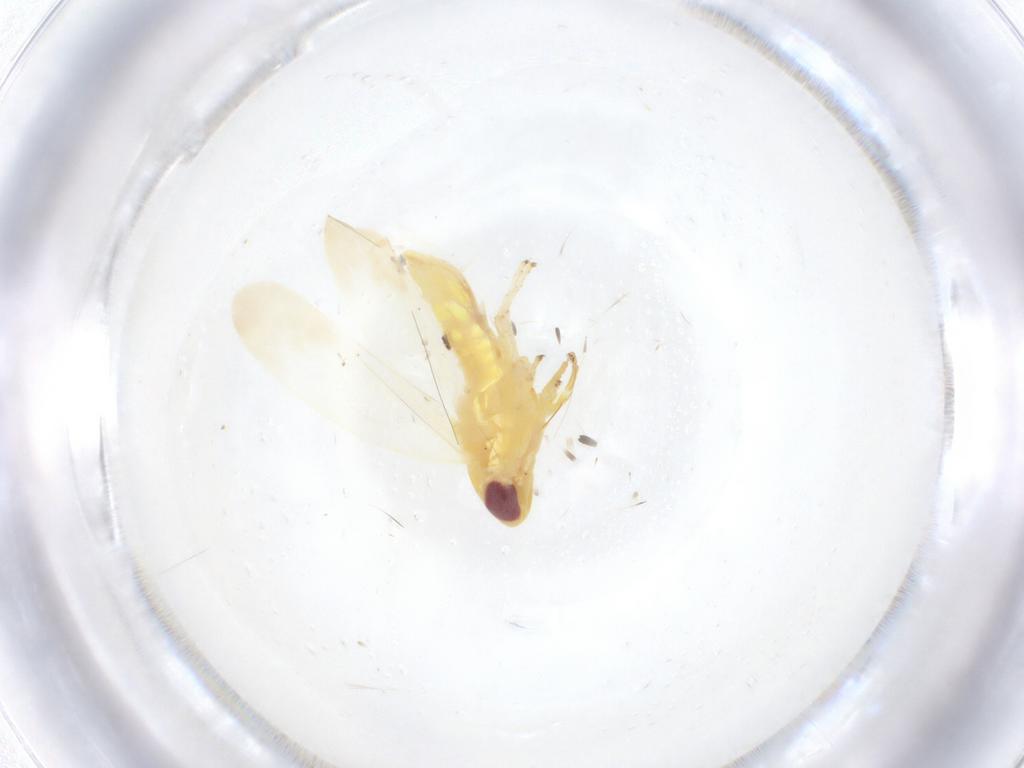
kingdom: Animalia
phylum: Arthropoda
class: Insecta
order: Hemiptera
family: Cicadellidae
